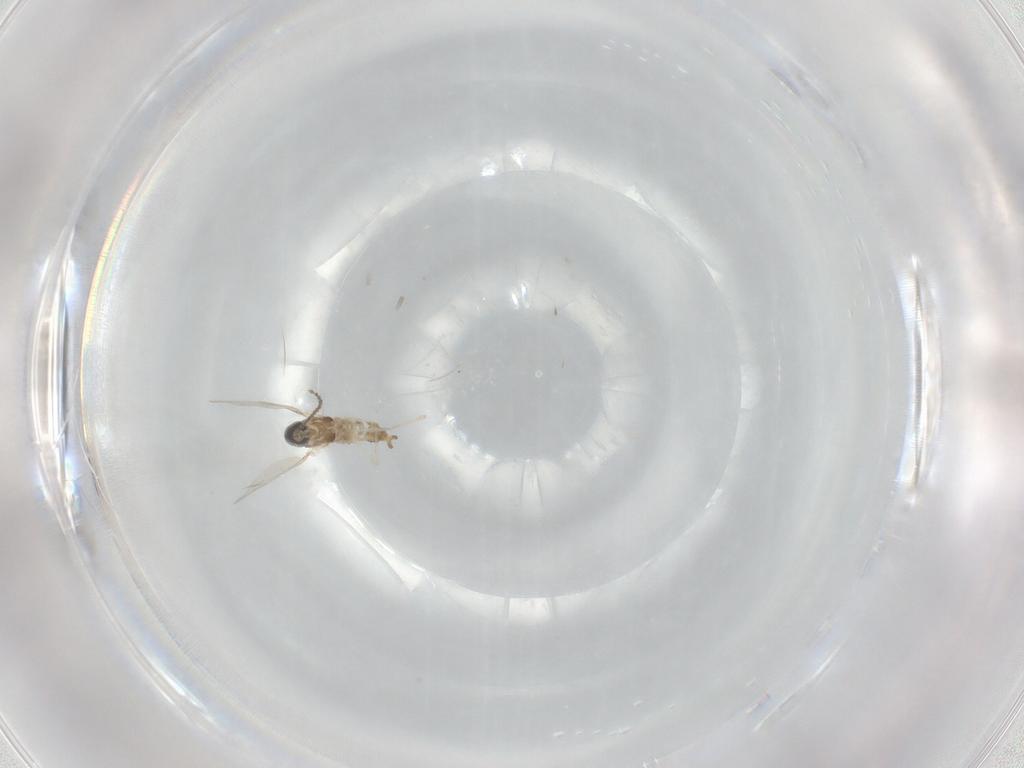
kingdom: Animalia
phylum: Arthropoda
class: Insecta
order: Diptera
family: Cecidomyiidae
